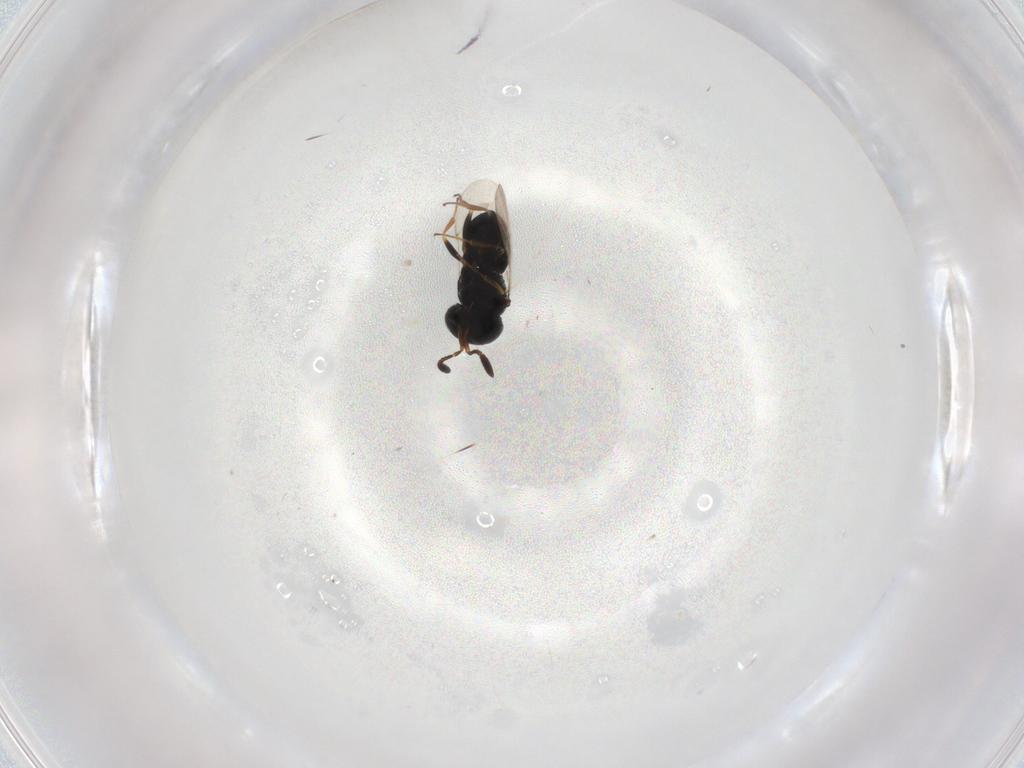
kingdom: Animalia
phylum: Arthropoda
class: Insecta
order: Coleoptera
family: Curculionidae
